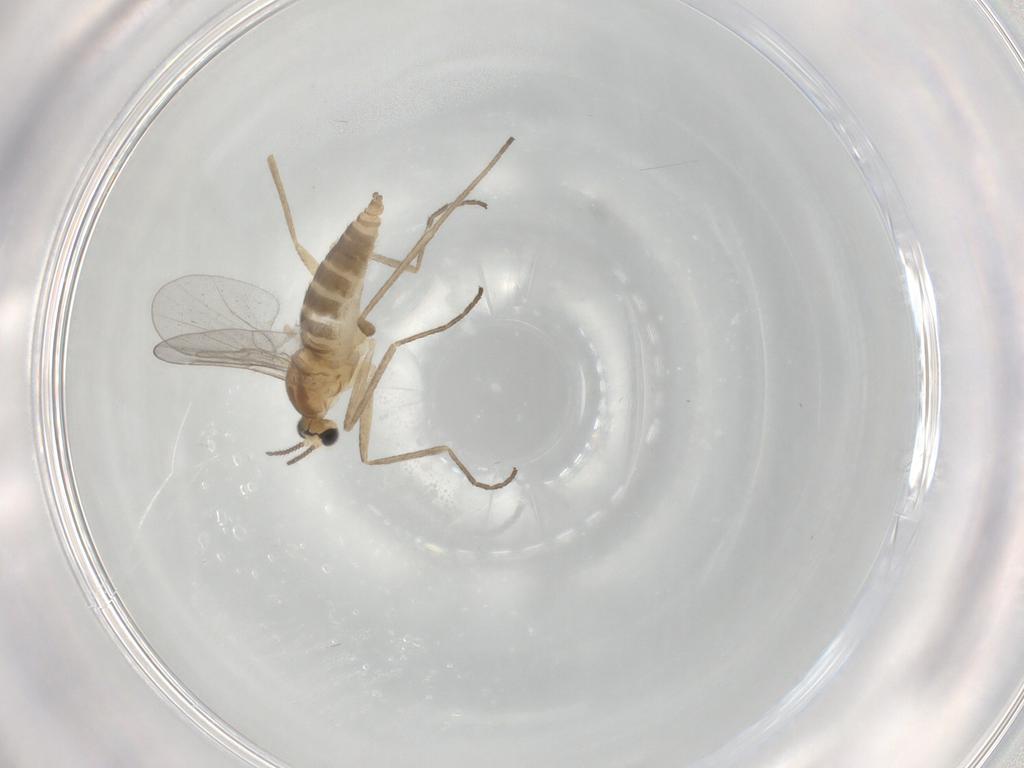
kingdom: Animalia
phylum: Arthropoda
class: Insecta
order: Diptera
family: Cecidomyiidae
